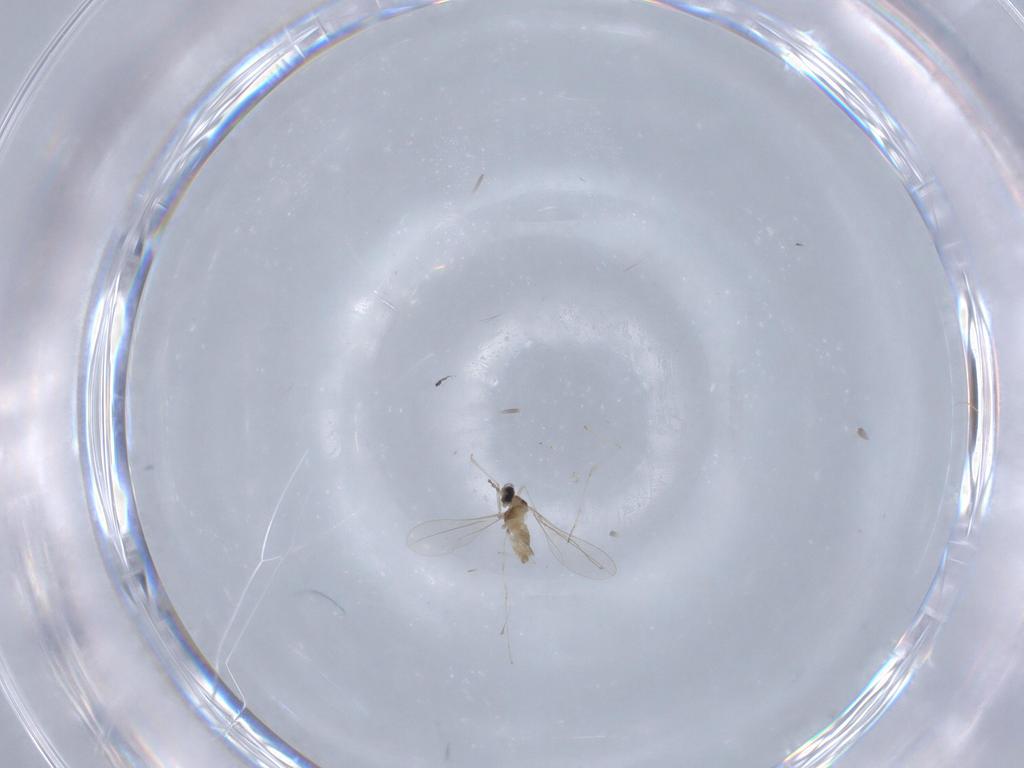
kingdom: Animalia
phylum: Arthropoda
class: Insecta
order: Diptera
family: Cecidomyiidae
